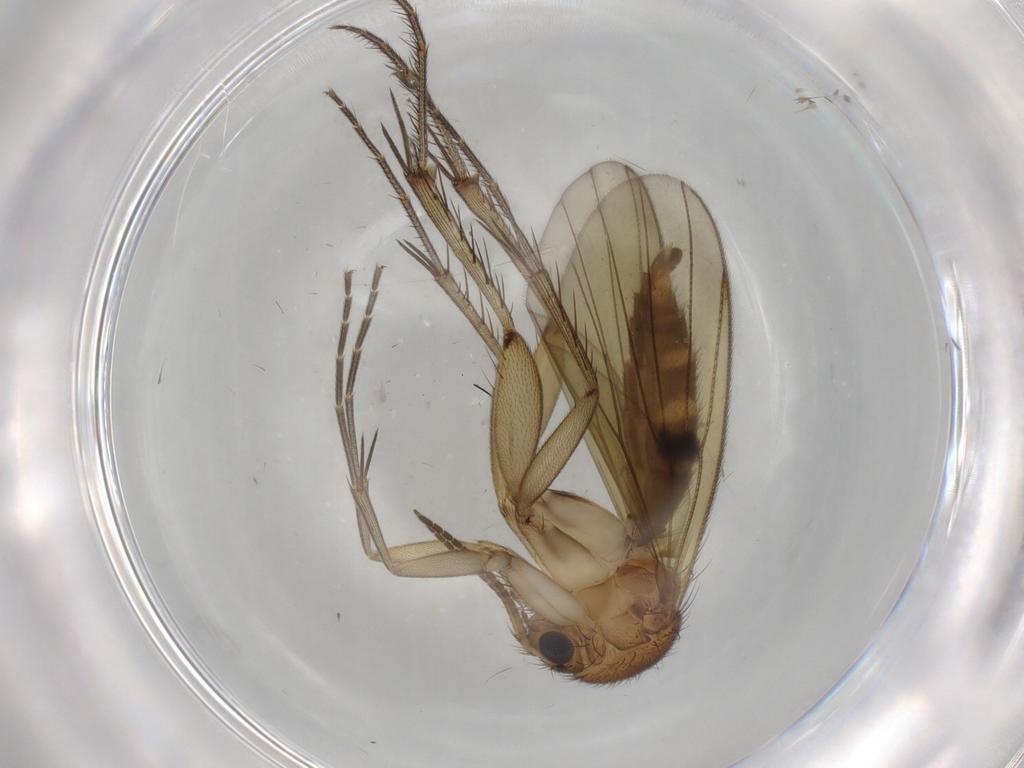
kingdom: Animalia
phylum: Arthropoda
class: Insecta
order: Diptera
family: Mycetophilidae
